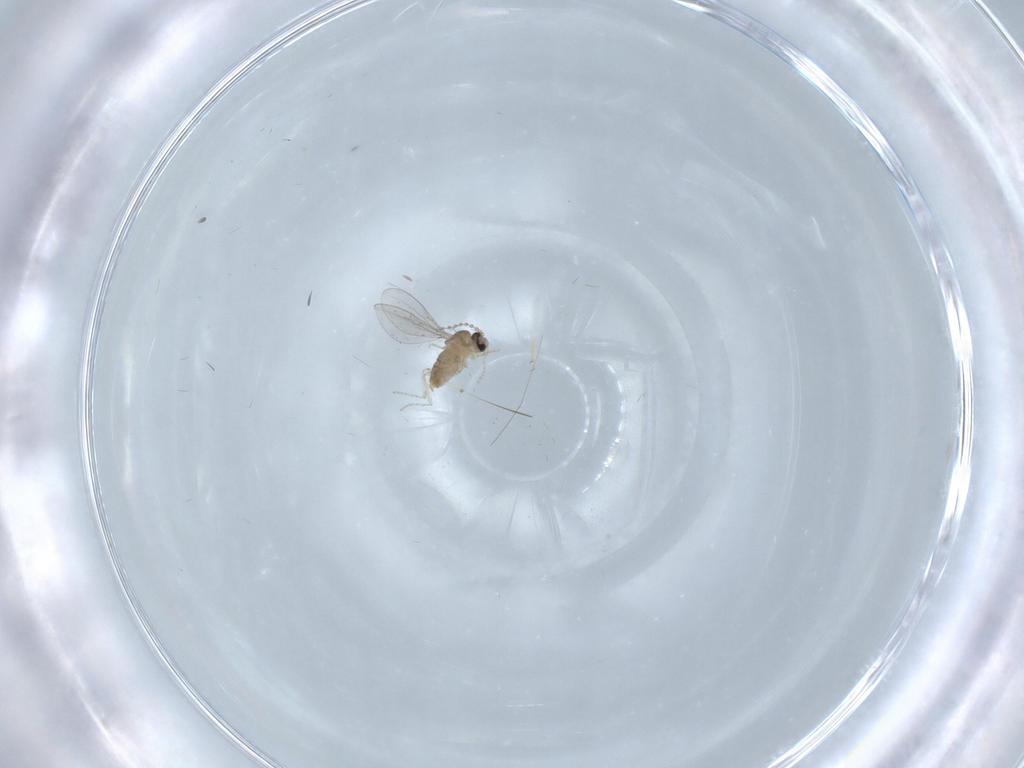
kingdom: Animalia
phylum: Arthropoda
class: Insecta
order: Diptera
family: Cecidomyiidae
